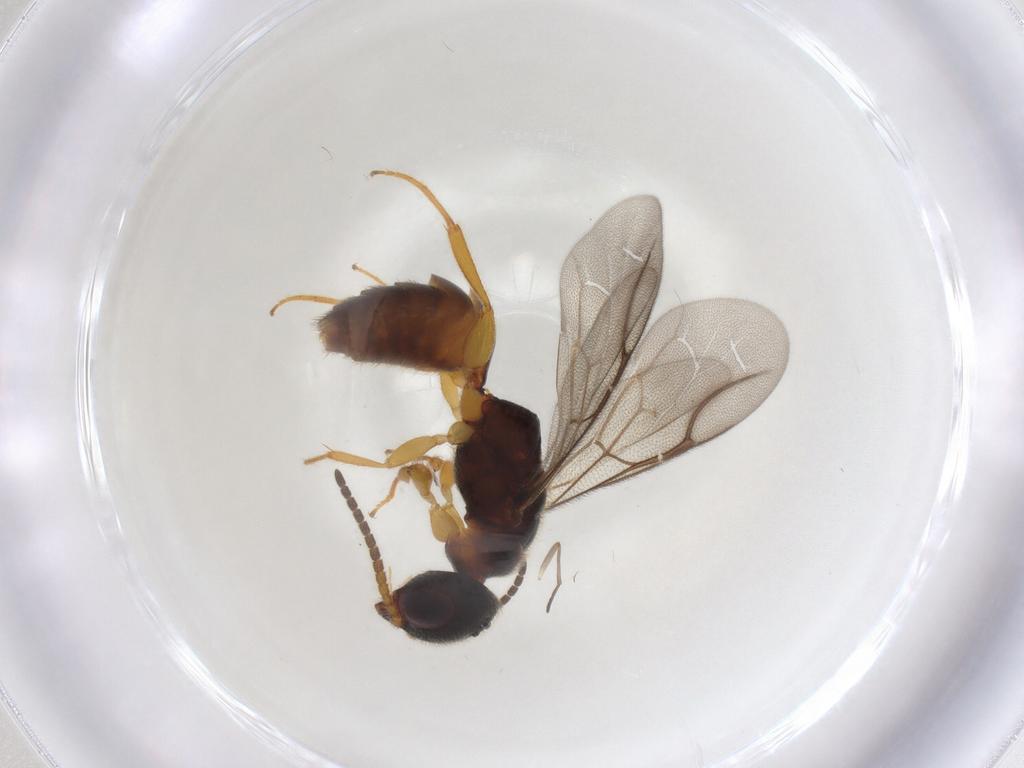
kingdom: Animalia
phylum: Arthropoda
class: Insecta
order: Hymenoptera
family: Bethylidae
